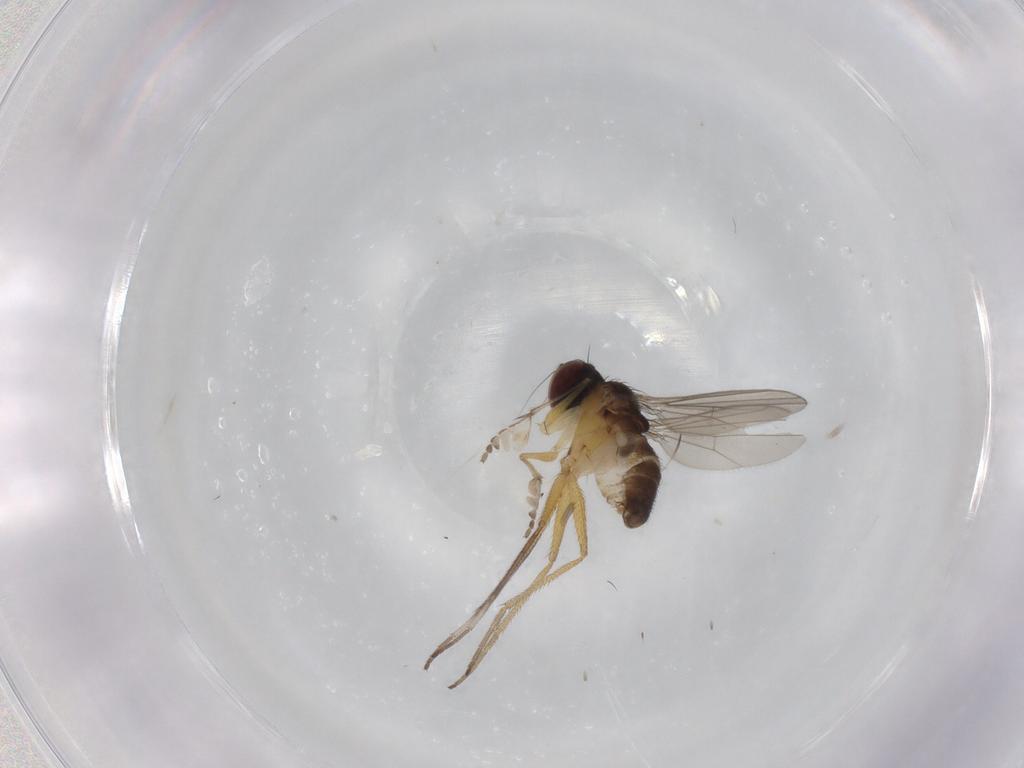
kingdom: Animalia
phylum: Arthropoda
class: Insecta
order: Diptera
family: Dolichopodidae
